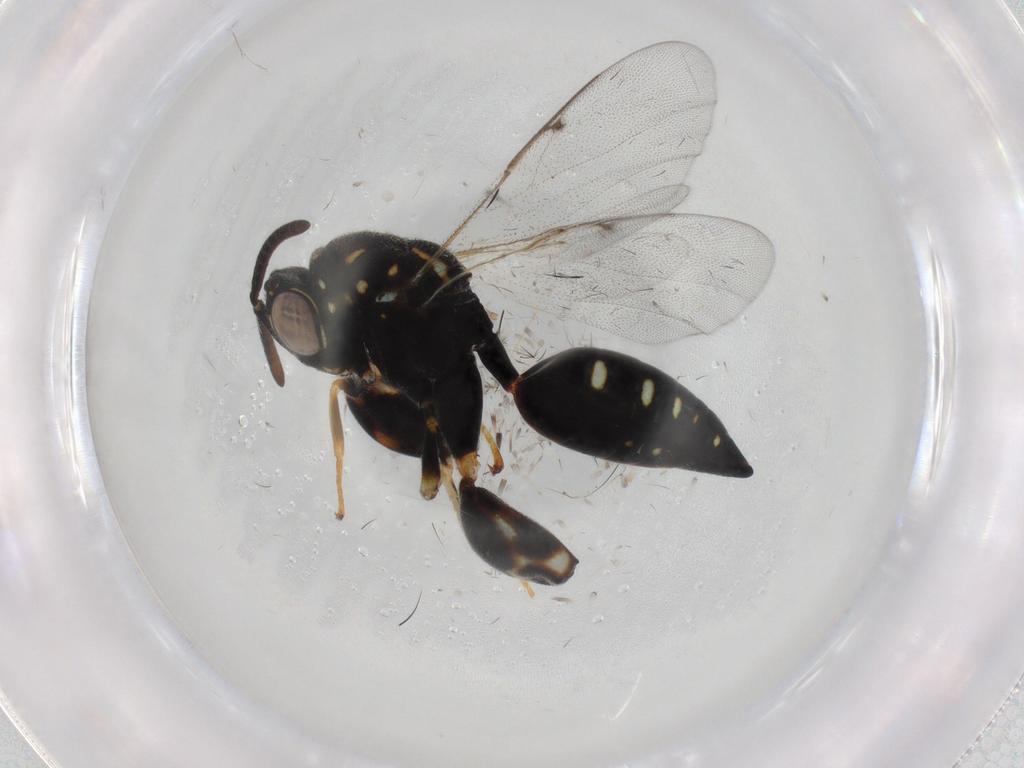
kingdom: Animalia
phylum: Arthropoda
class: Insecta
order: Hymenoptera
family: Chalcididae
